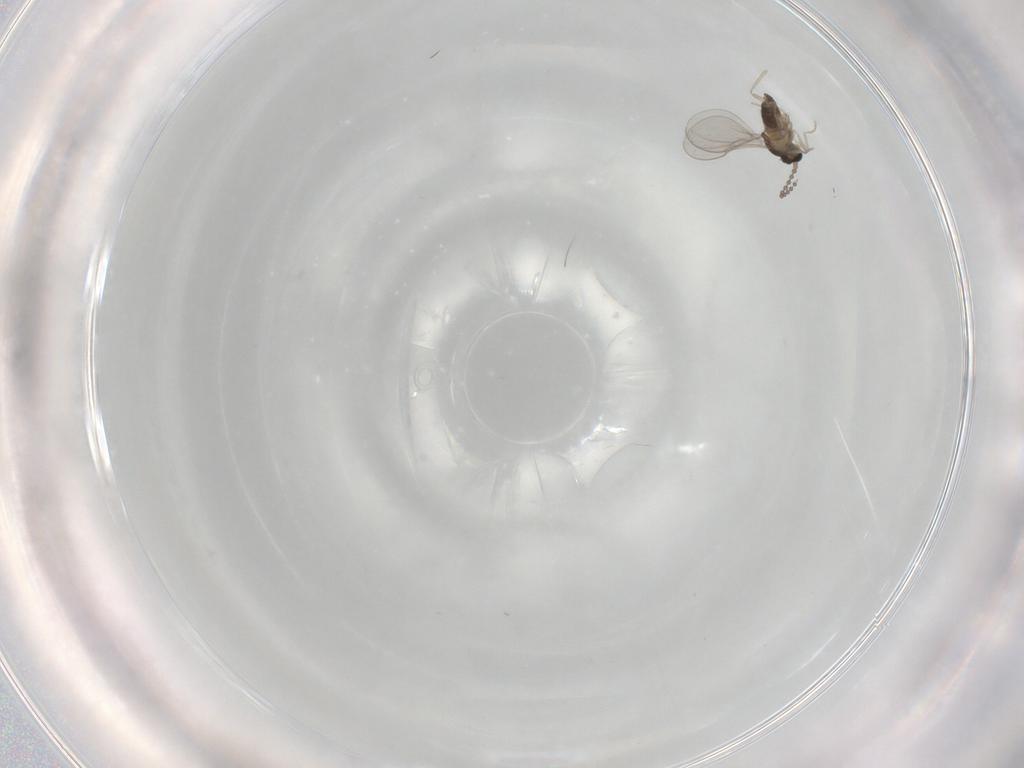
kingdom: Animalia
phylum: Arthropoda
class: Insecta
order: Diptera
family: Cecidomyiidae
